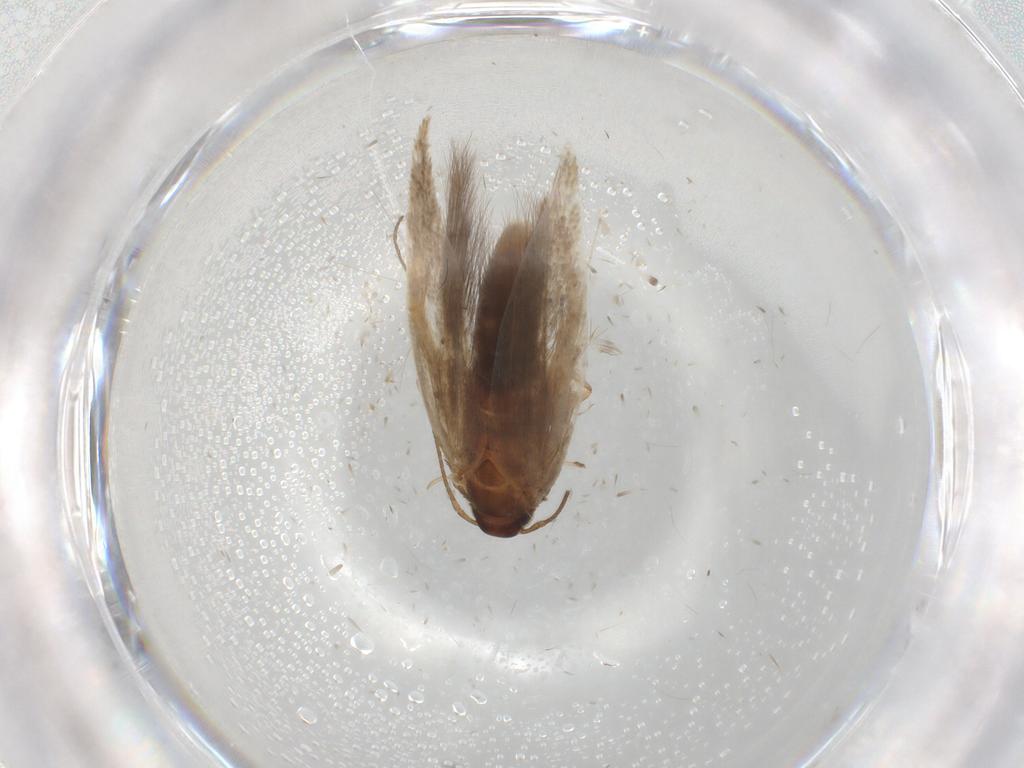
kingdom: Animalia
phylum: Arthropoda
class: Insecta
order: Lepidoptera
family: Gelechiidae
